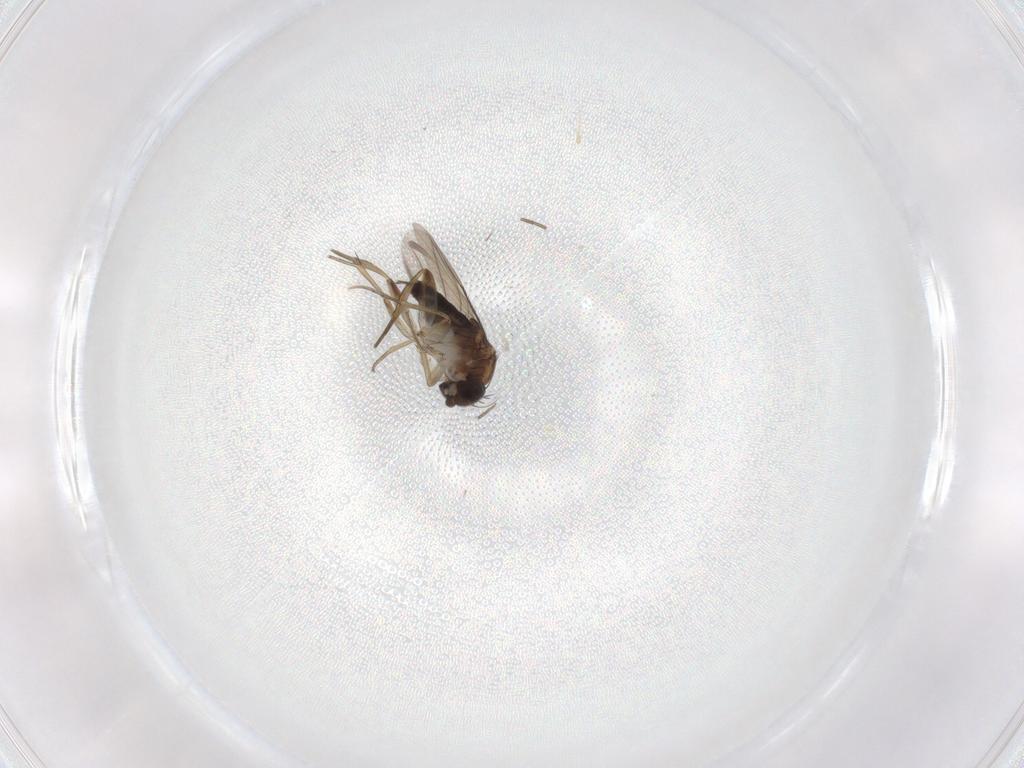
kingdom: Animalia
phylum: Arthropoda
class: Insecta
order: Diptera
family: Phoridae
